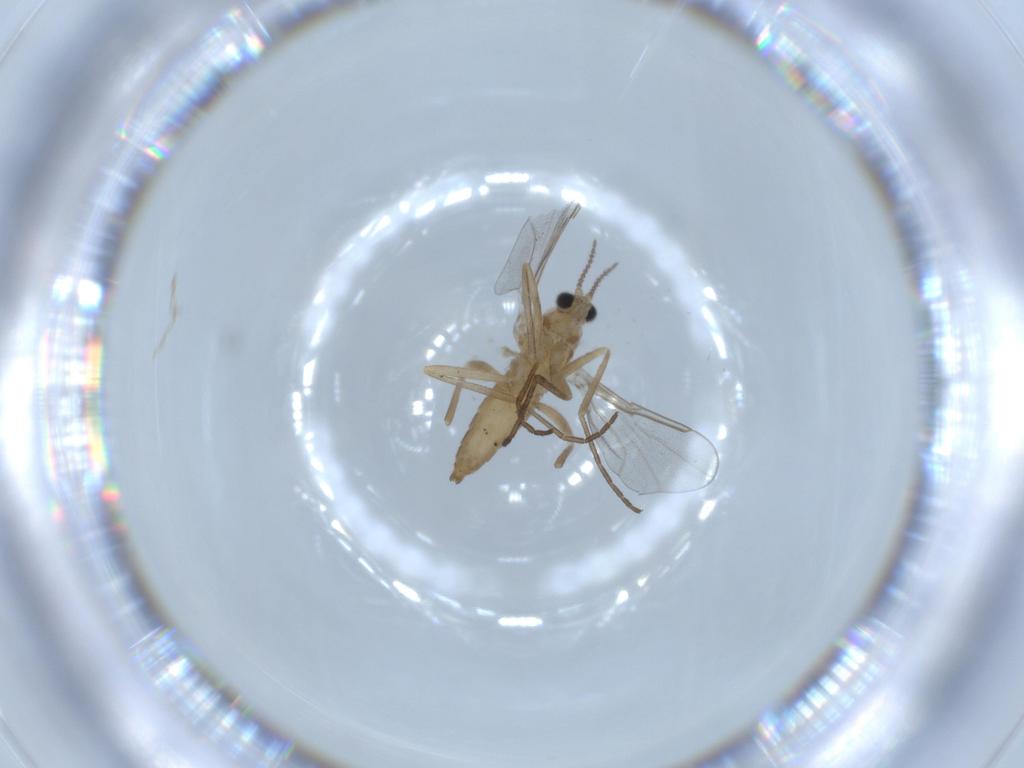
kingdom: Animalia
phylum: Arthropoda
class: Insecta
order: Diptera
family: Cecidomyiidae
